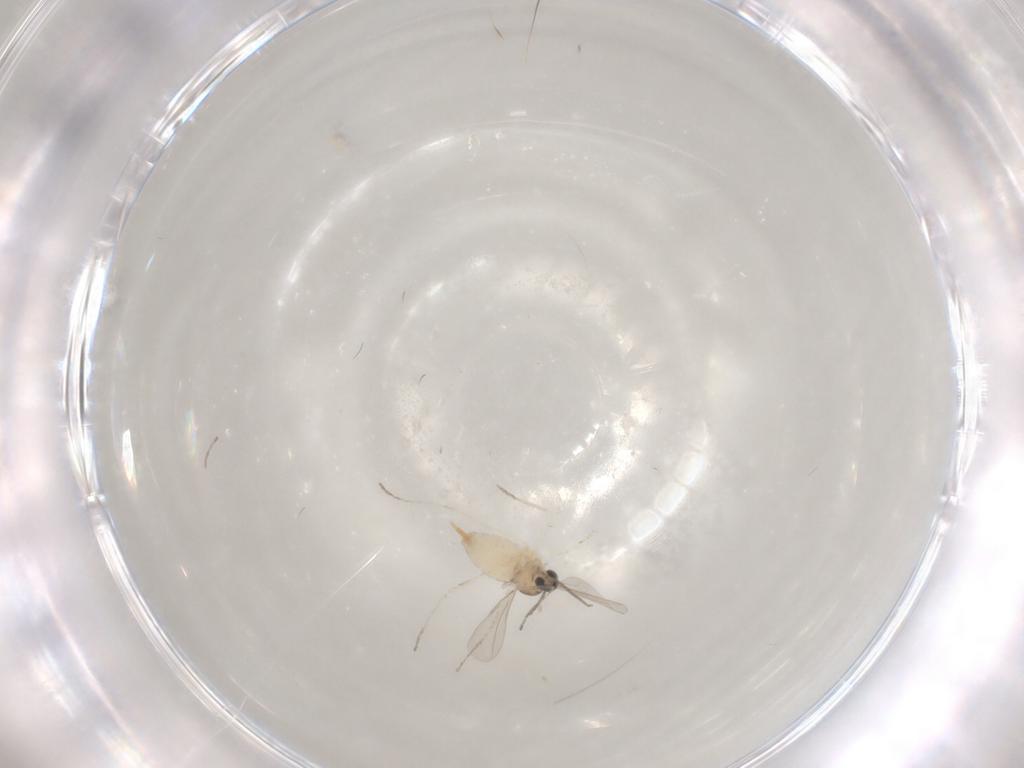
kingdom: Animalia
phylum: Arthropoda
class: Insecta
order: Diptera
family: Cecidomyiidae
